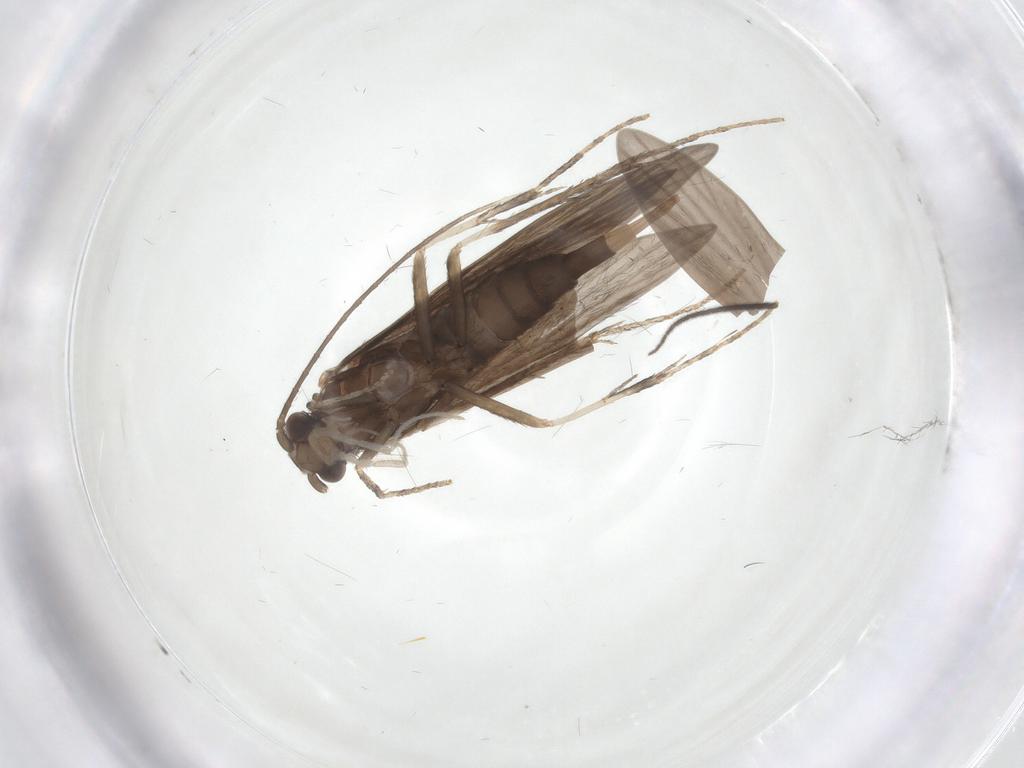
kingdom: Animalia
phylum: Arthropoda
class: Insecta
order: Trichoptera
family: Xiphocentronidae
